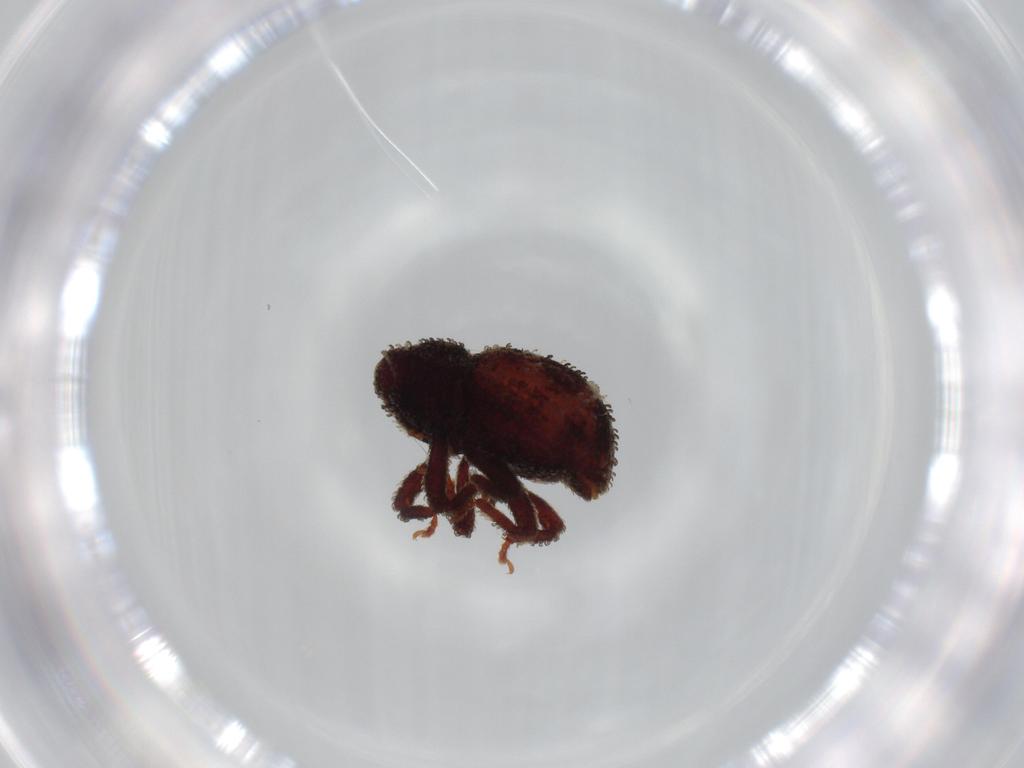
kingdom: Animalia
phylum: Arthropoda
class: Insecta
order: Coleoptera
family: Curculionidae
